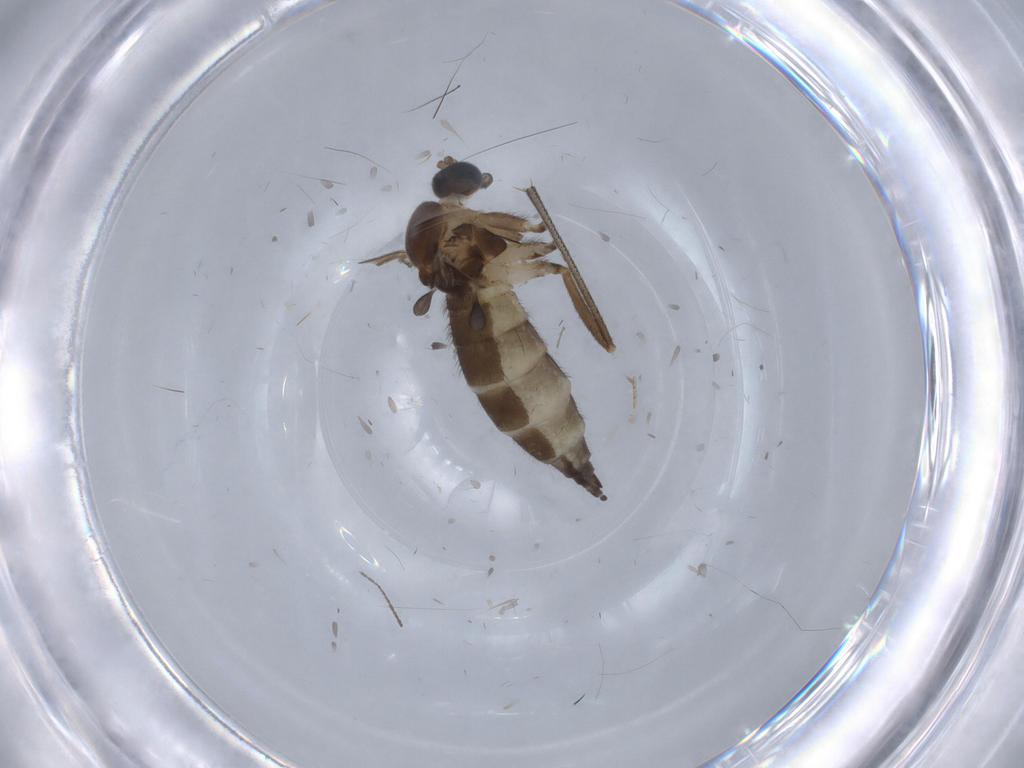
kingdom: Animalia
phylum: Arthropoda
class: Insecta
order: Diptera
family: Sciaridae
